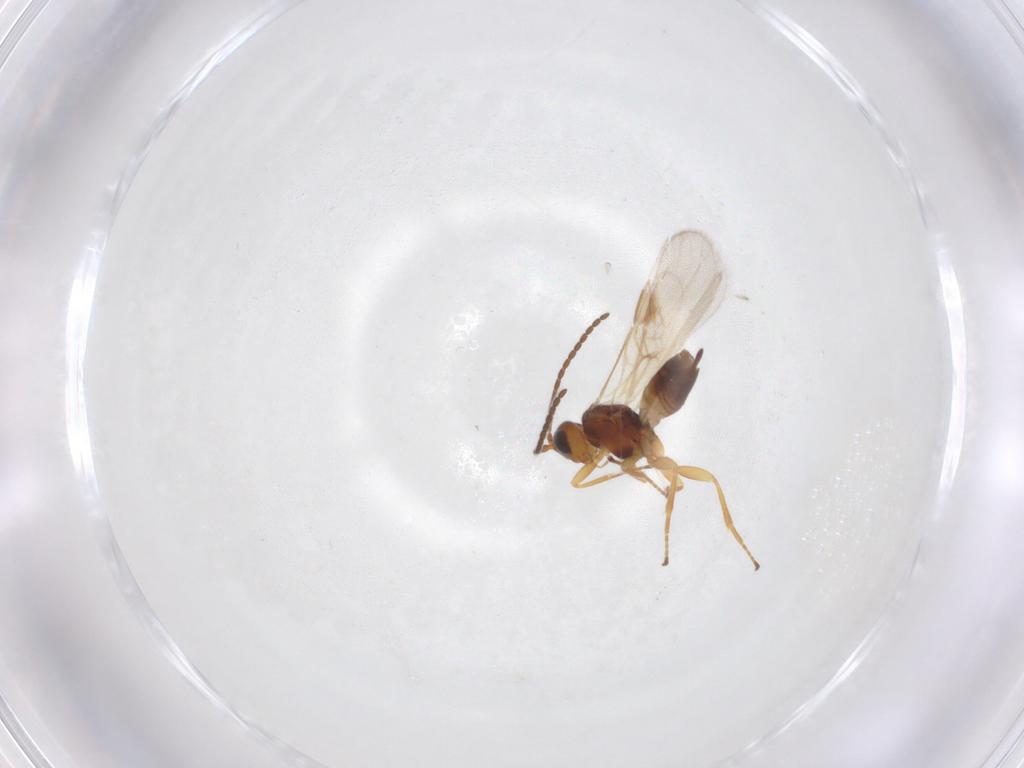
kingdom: Animalia
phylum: Arthropoda
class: Insecta
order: Hymenoptera
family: Braconidae
